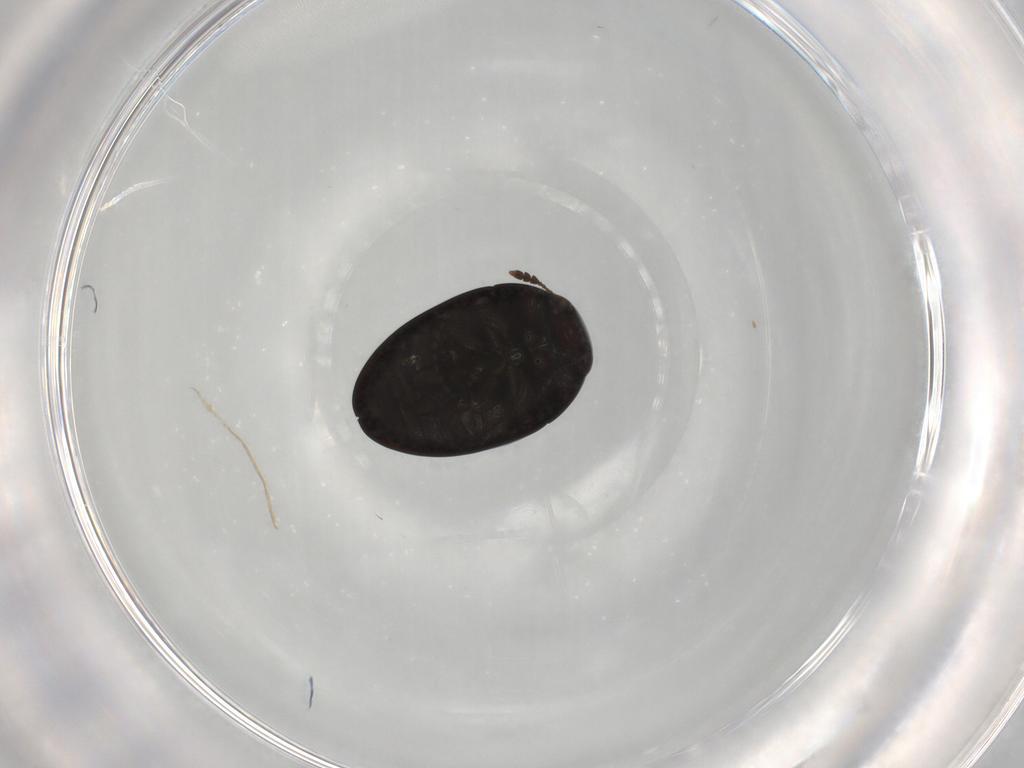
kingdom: Animalia
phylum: Arthropoda
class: Insecta
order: Coleoptera
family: Phalacridae
